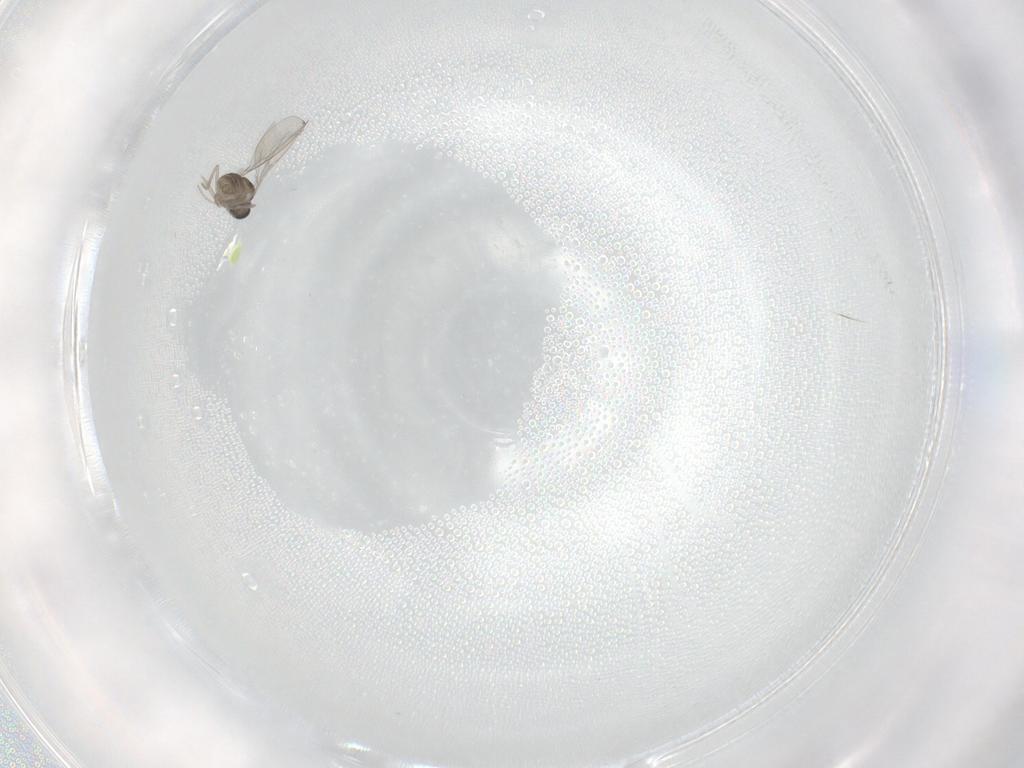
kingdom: Animalia
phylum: Arthropoda
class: Insecta
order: Diptera
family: Cecidomyiidae
